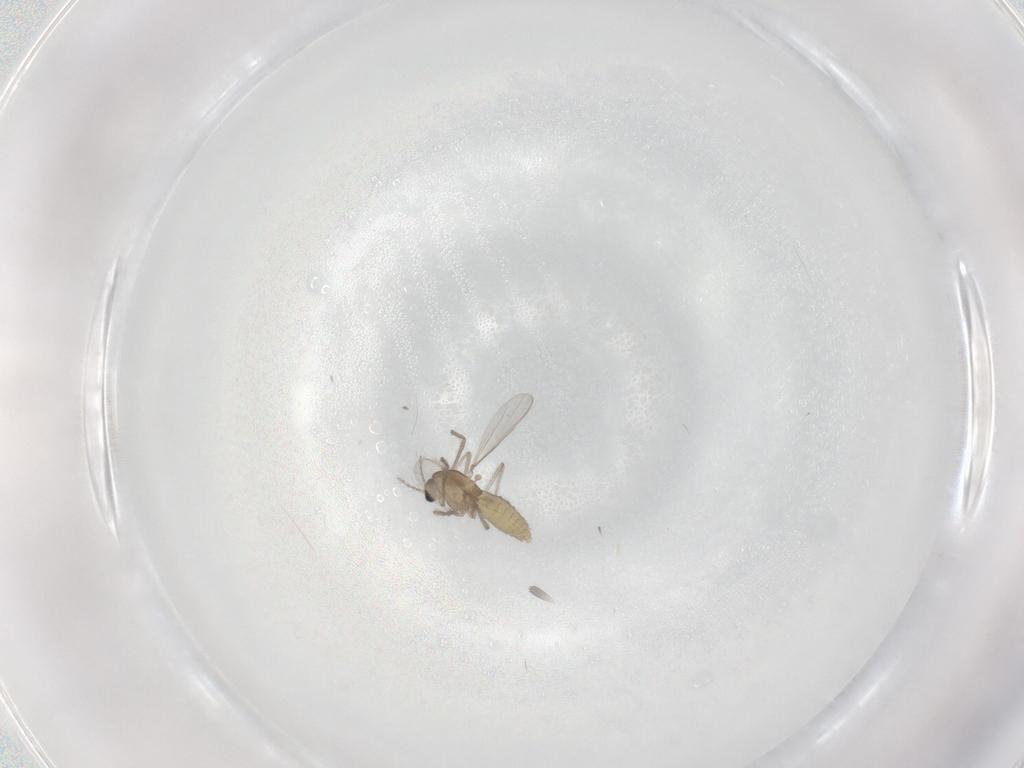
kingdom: Animalia
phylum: Arthropoda
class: Insecta
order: Diptera
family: Chironomidae
